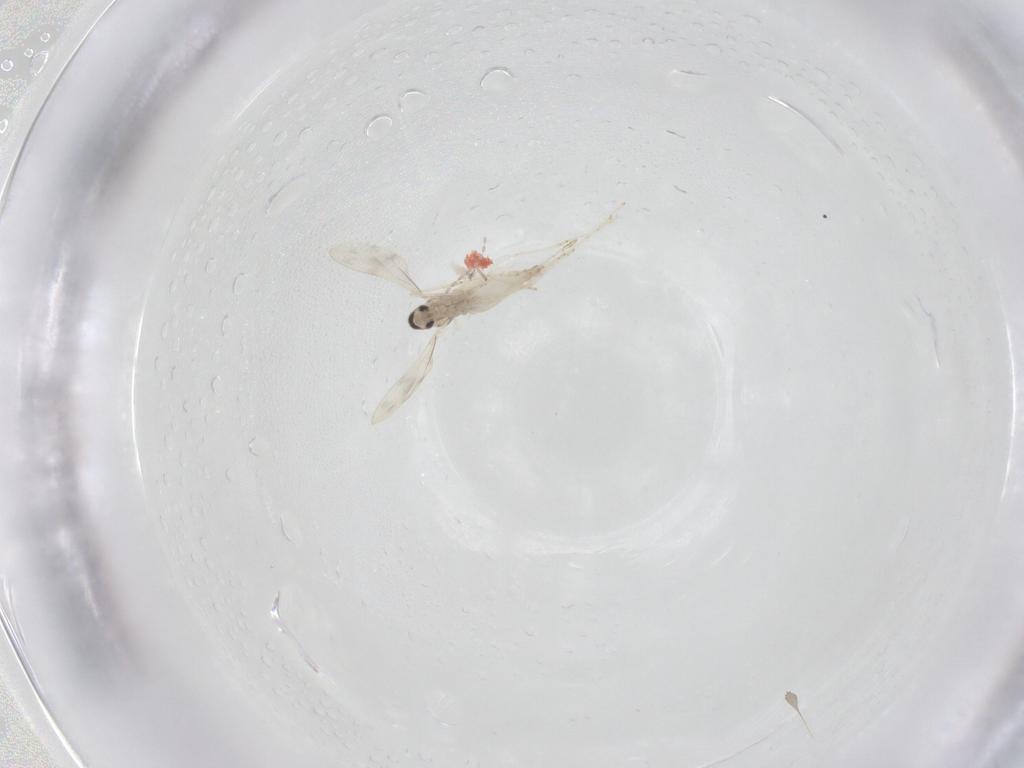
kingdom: Animalia
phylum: Arthropoda
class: Insecta
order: Diptera
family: Cecidomyiidae
